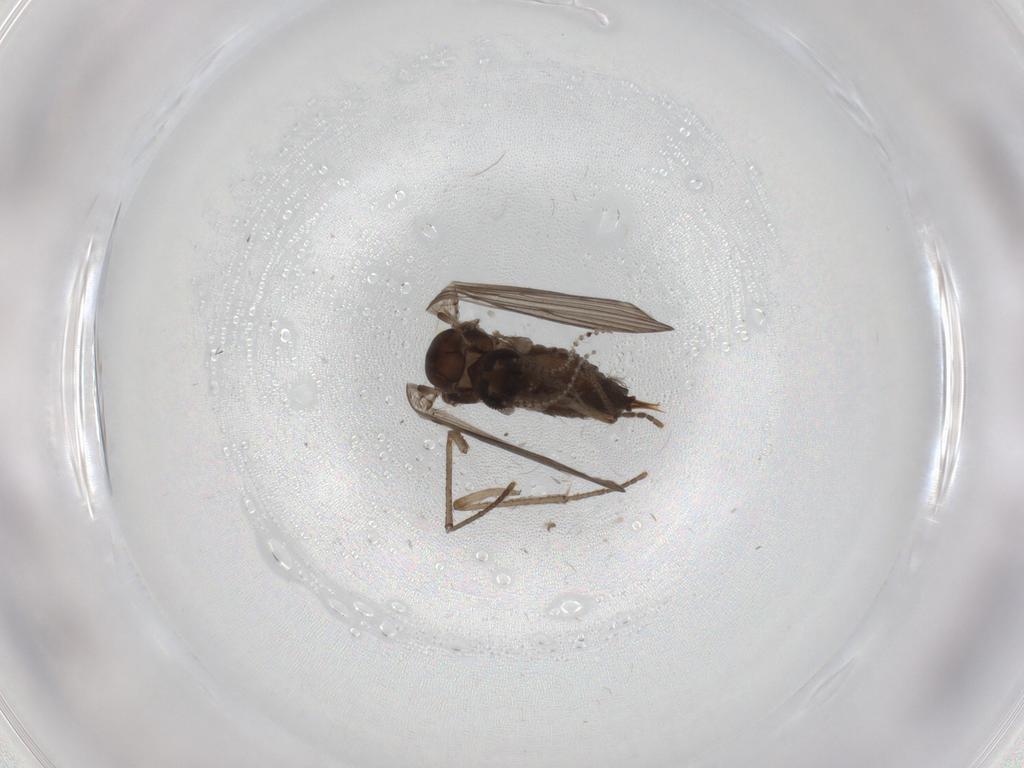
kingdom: Animalia
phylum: Arthropoda
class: Insecta
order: Diptera
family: Psychodidae
